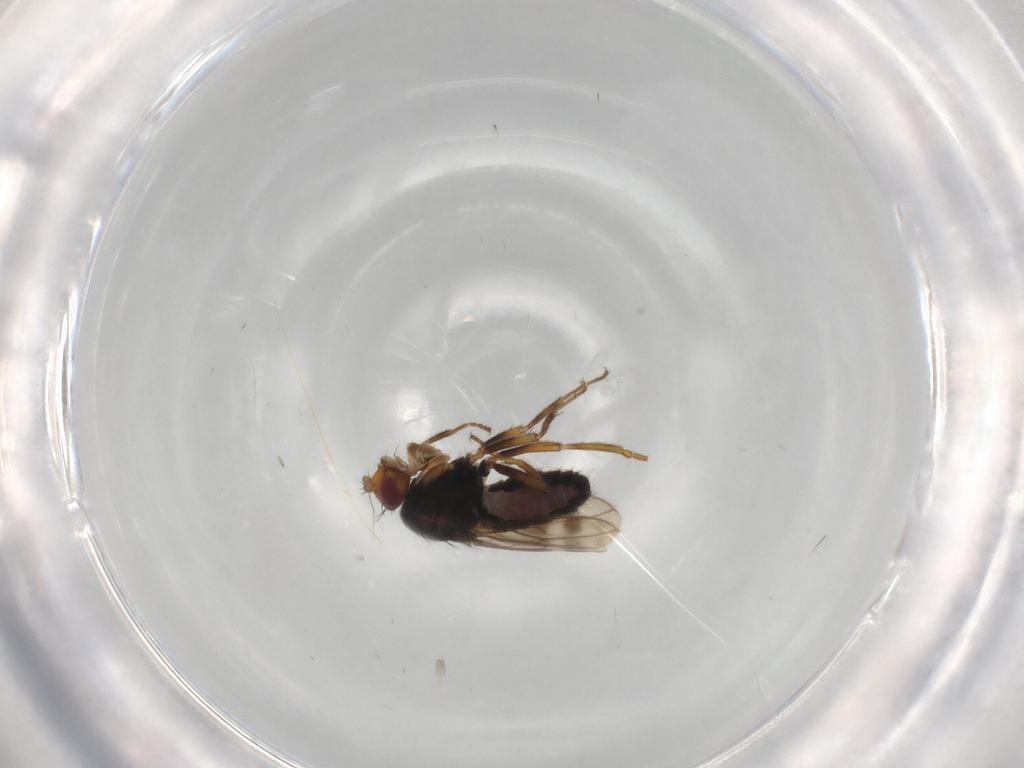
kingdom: Animalia
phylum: Arthropoda
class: Insecta
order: Diptera
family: Sphaeroceridae
